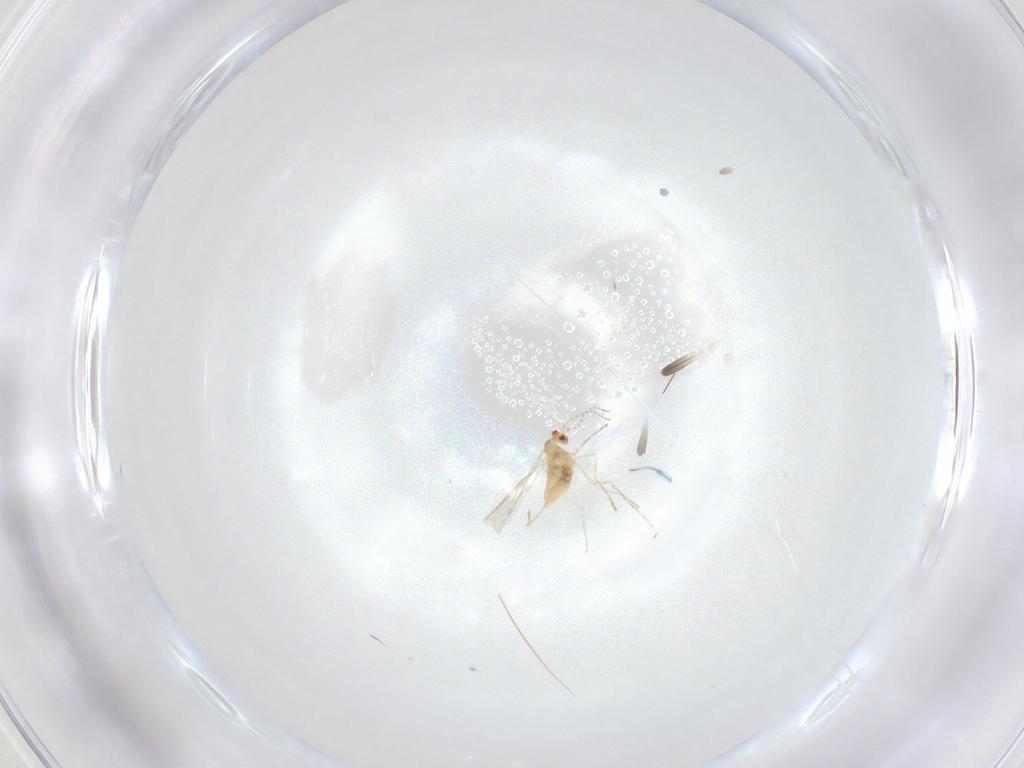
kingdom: Animalia
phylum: Arthropoda
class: Insecta
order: Diptera
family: Cecidomyiidae
